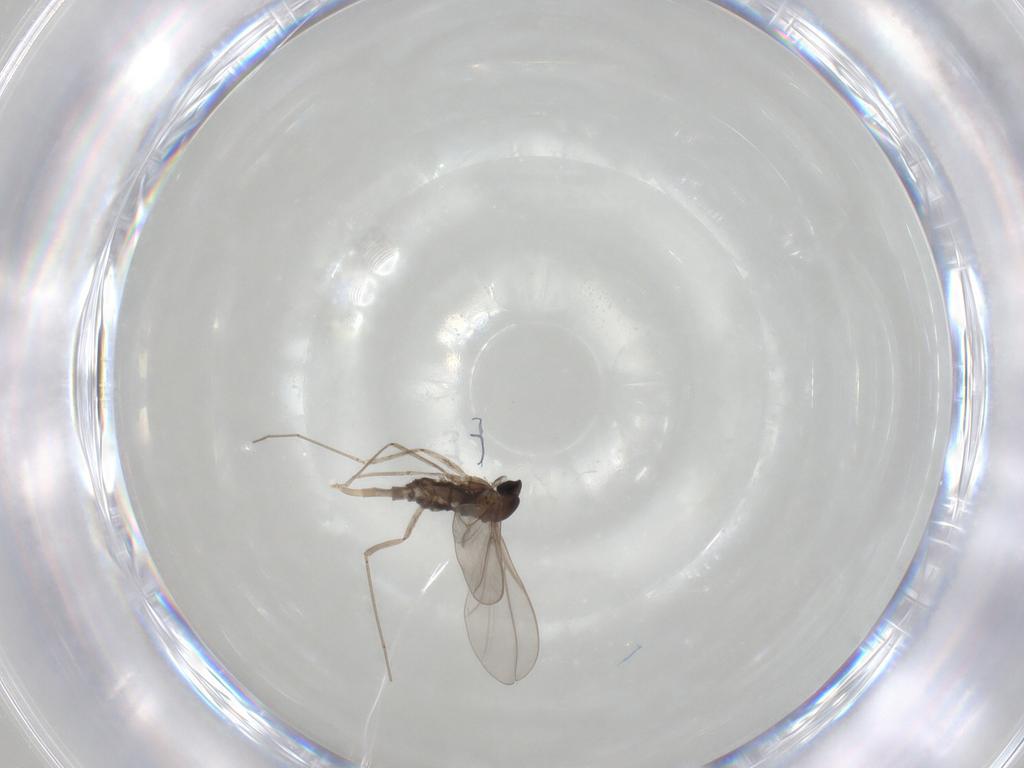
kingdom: Animalia
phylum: Arthropoda
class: Insecta
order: Diptera
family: Cecidomyiidae
